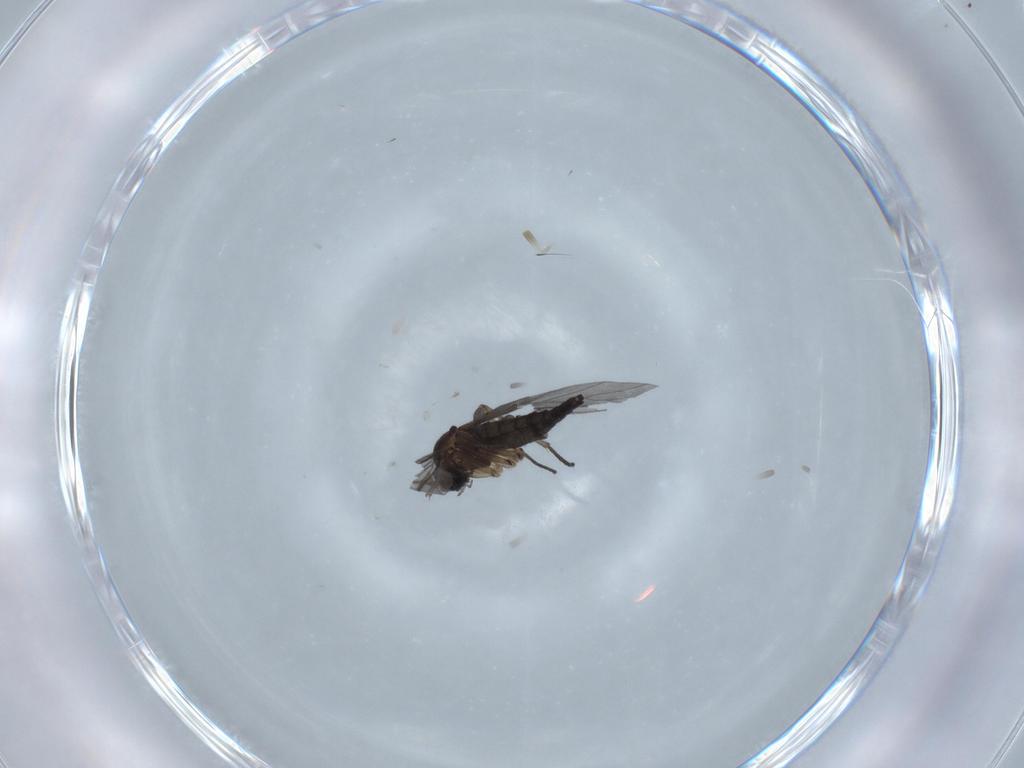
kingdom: Animalia
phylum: Arthropoda
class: Insecta
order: Diptera
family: Sciaridae
